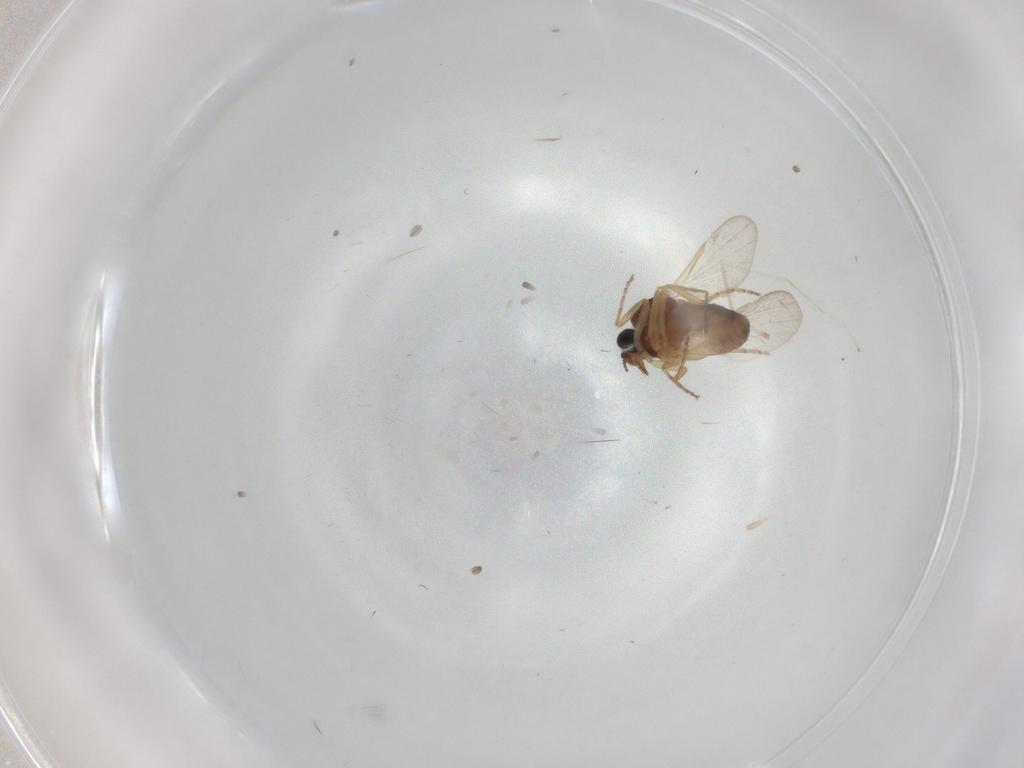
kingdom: Animalia
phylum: Arthropoda
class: Insecta
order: Diptera
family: Ceratopogonidae
